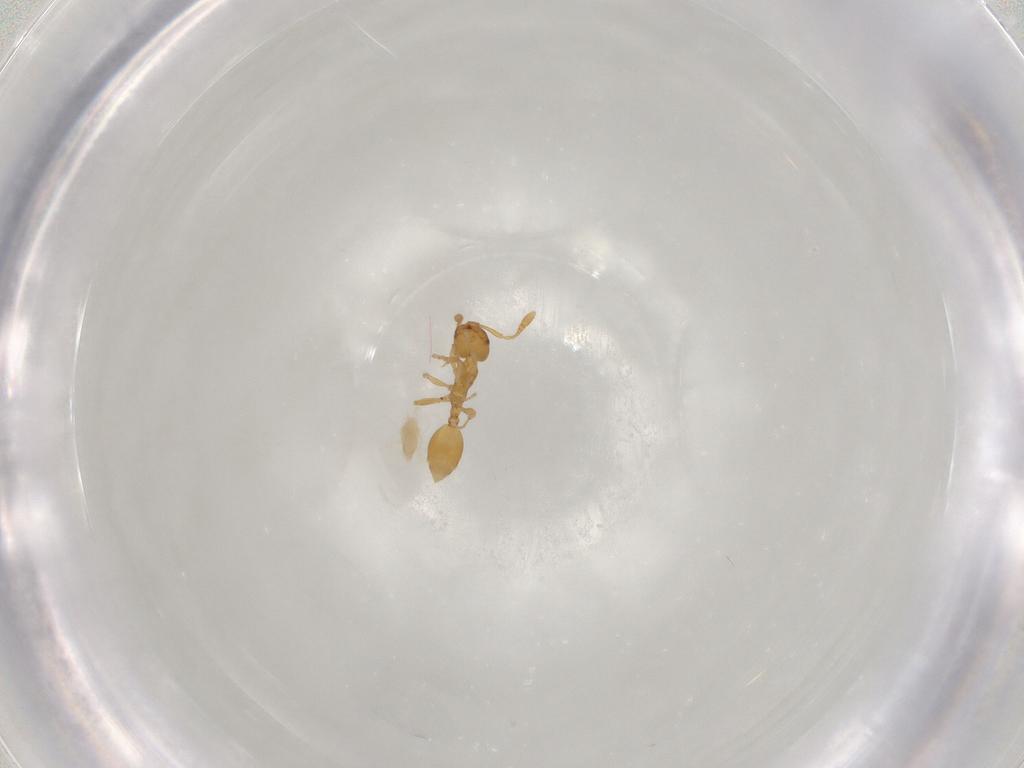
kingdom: Animalia
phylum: Arthropoda
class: Insecta
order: Hymenoptera
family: Formicidae
